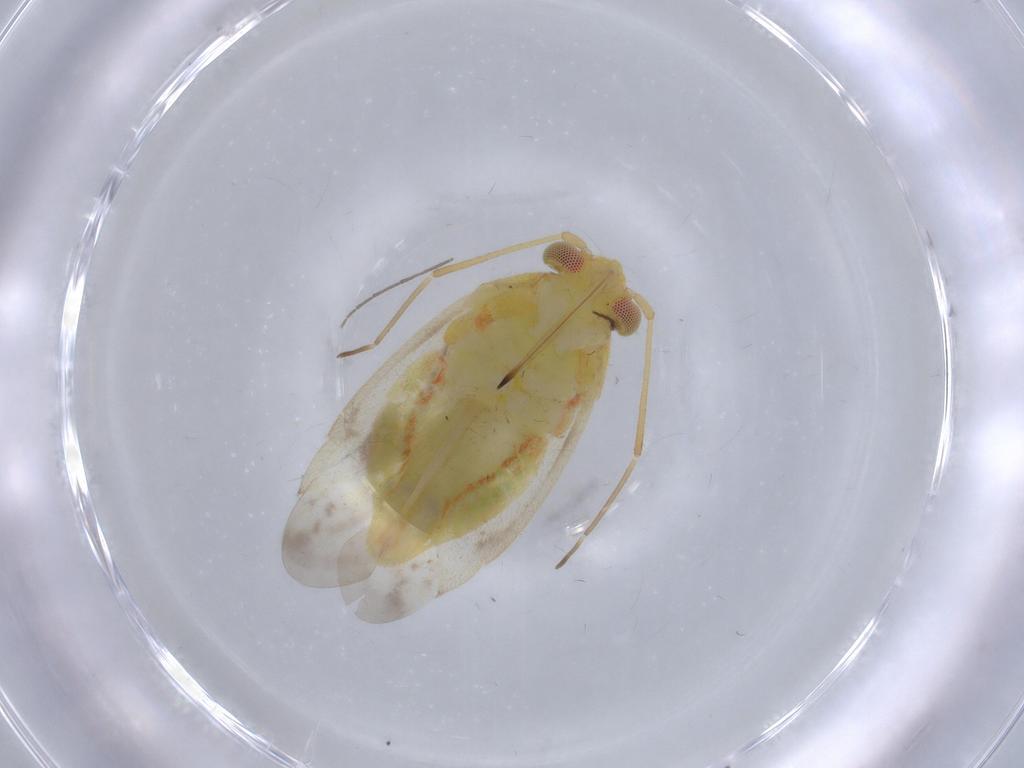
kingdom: Animalia
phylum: Arthropoda
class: Insecta
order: Hemiptera
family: Miridae
